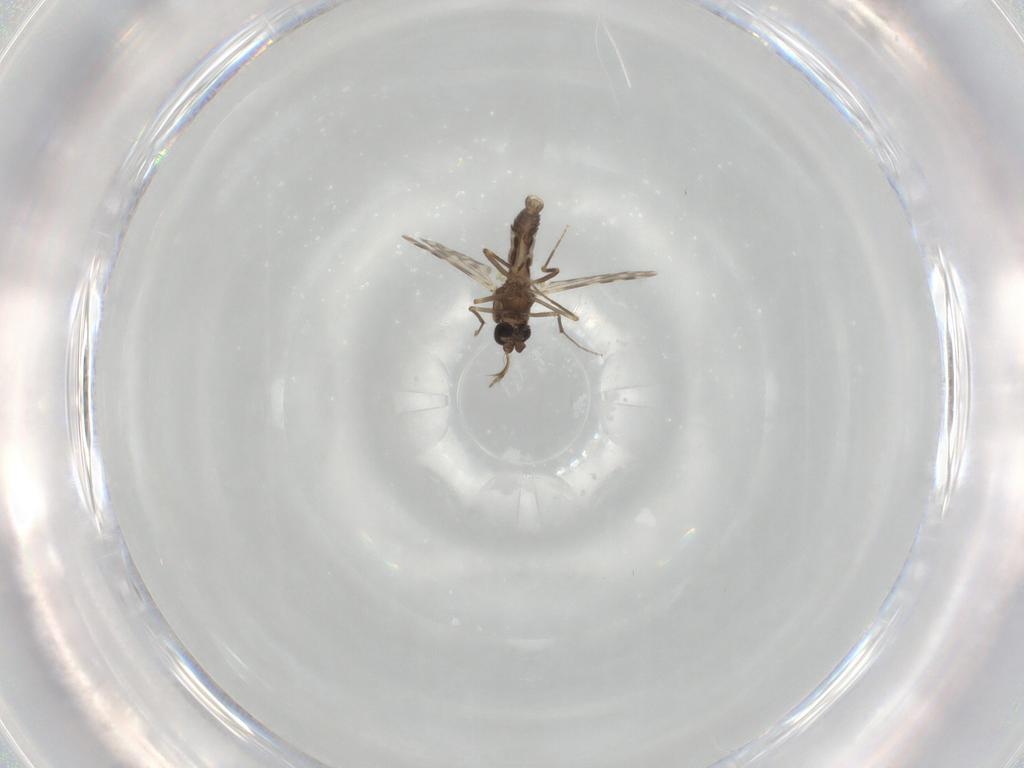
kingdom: Animalia
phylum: Arthropoda
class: Insecta
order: Diptera
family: Ceratopogonidae
